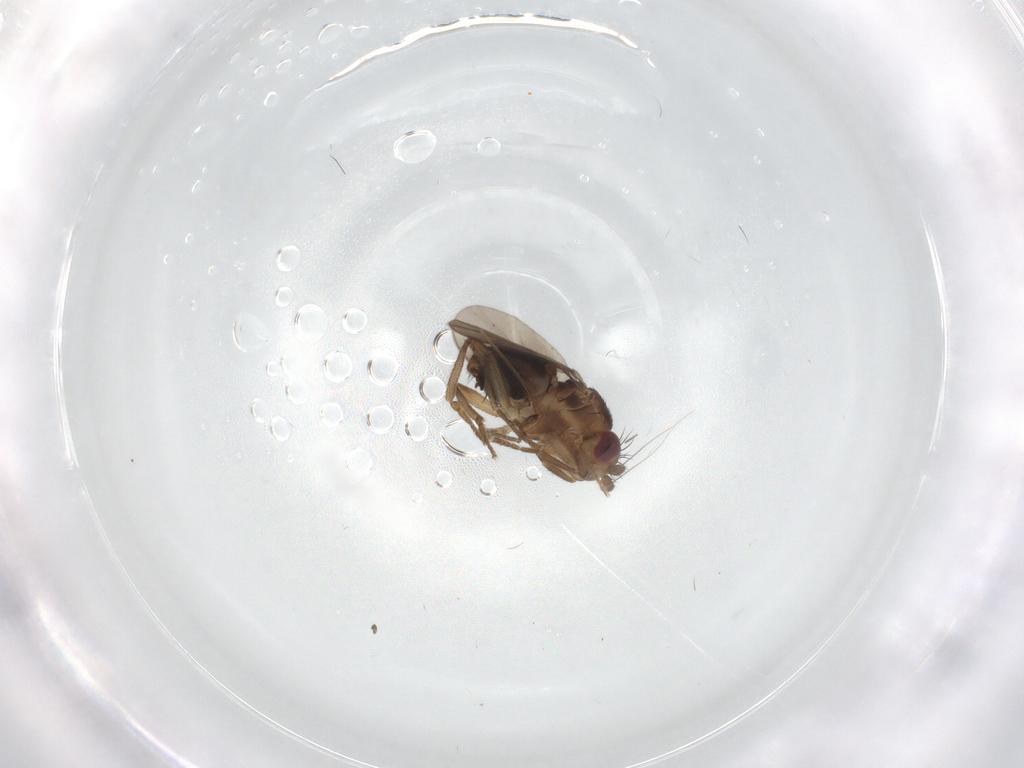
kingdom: Animalia
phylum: Arthropoda
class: Insecta
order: Diptera
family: Sphaeroceridae
